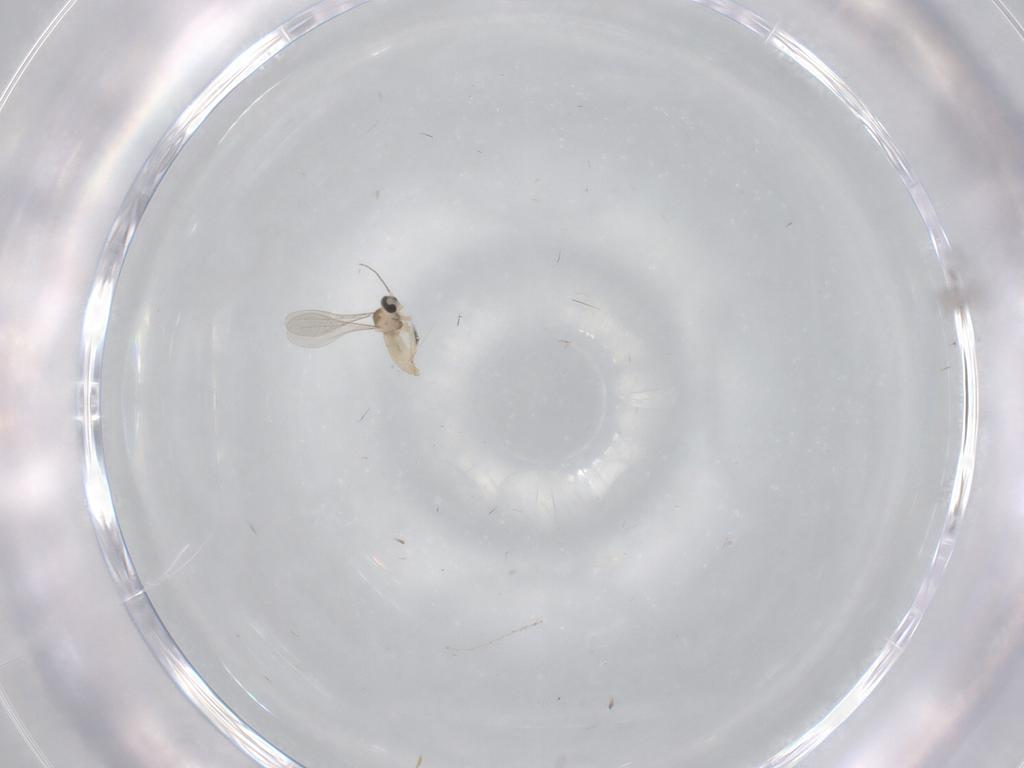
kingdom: Animalia
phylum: Arthropoda
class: Insecta
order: Diptera
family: Cecidomyiidae
